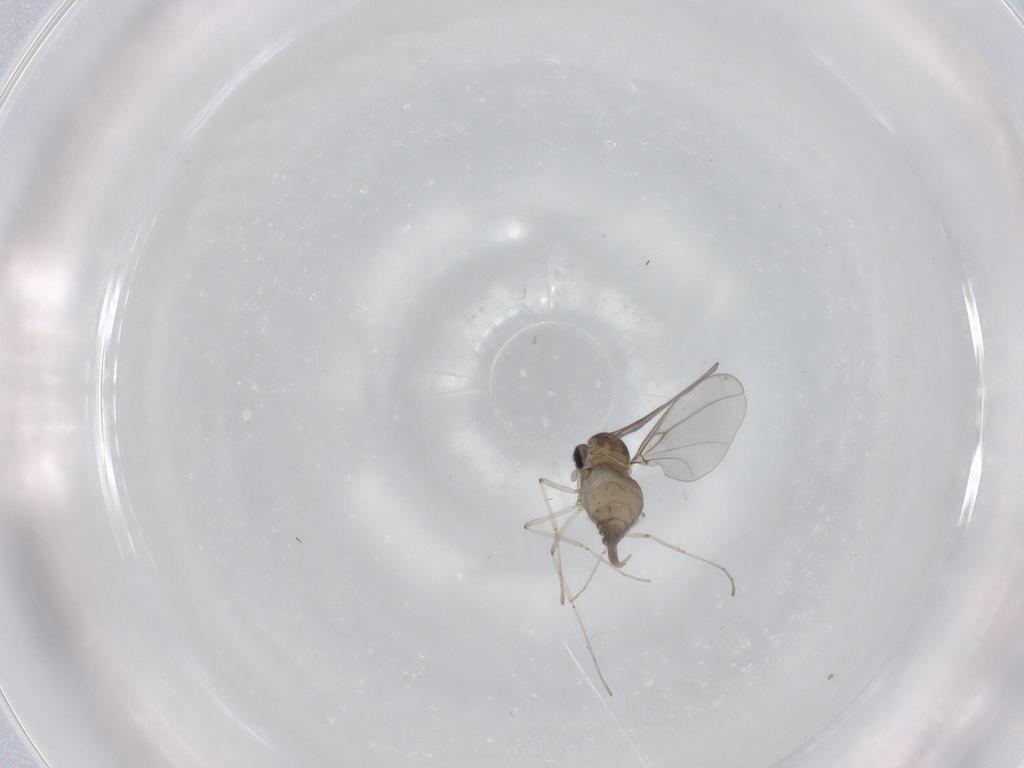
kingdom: Animalia
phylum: Arthropoda
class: Insecta
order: Diptera
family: Cecidomyiidae
